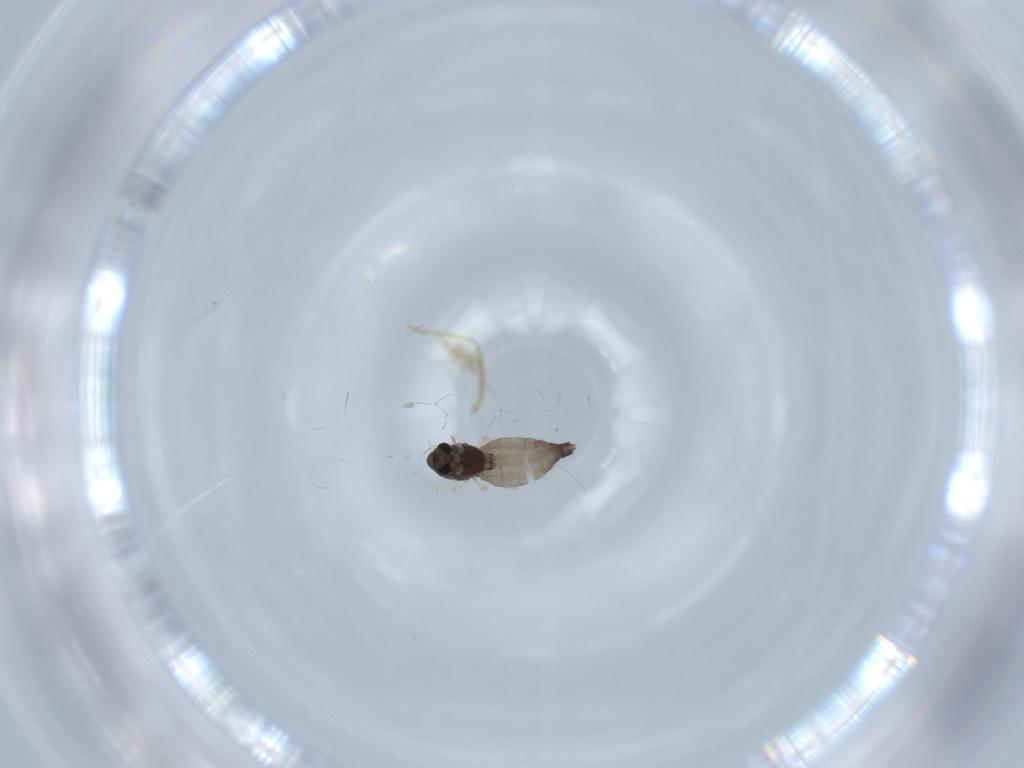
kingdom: Animalia
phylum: Arthropoda
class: Insecta
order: Diptera
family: Chironomidae
